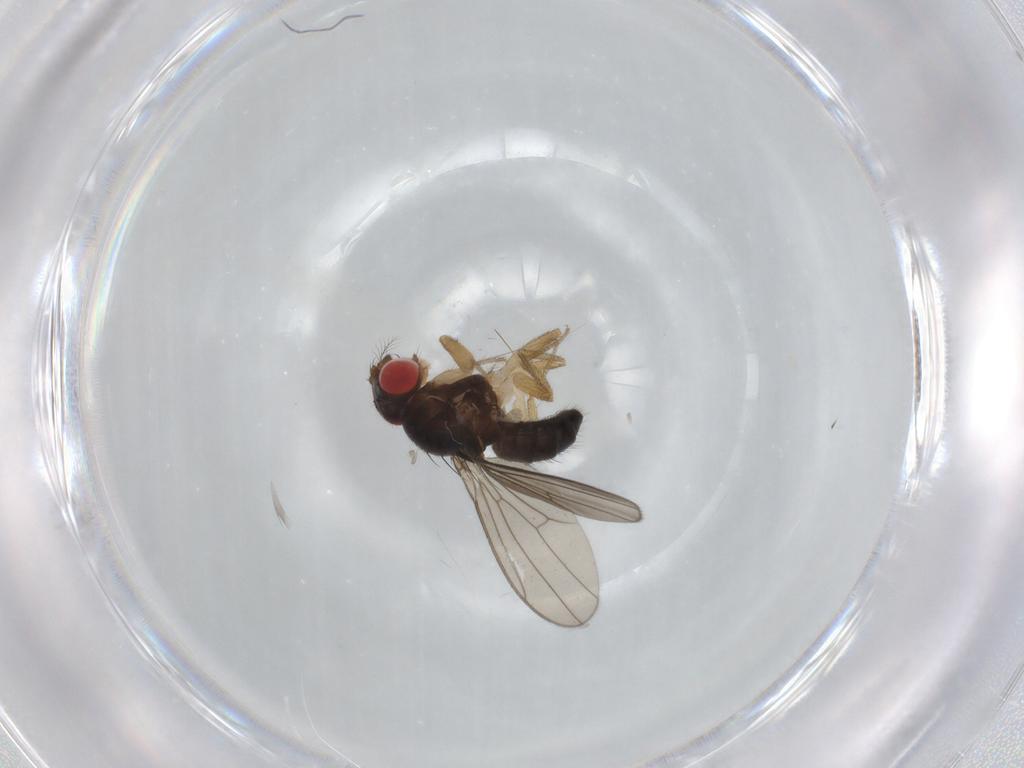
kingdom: Animalia
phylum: Arthropoda
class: Insecta
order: Diptera
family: Drosophilidae
